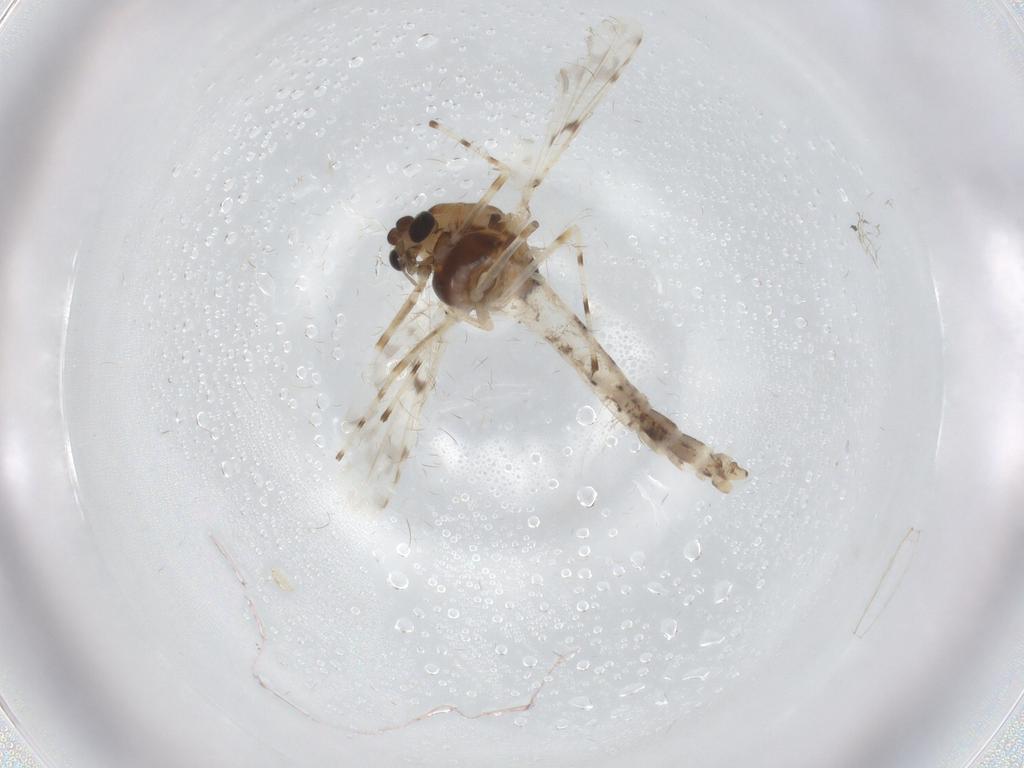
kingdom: Animalia
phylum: Arthropoda
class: Insecta
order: Diptera
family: Chironomidae
